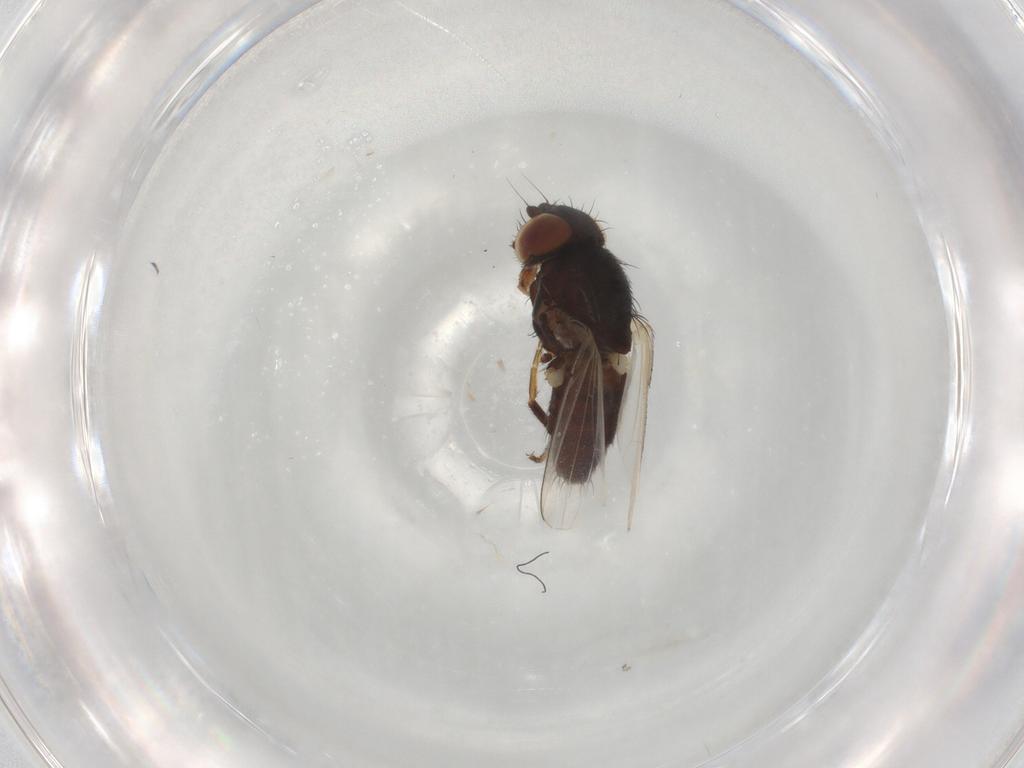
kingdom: Animalia
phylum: Arthropoda
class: Insecta
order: Diptera
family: Milichiidae
